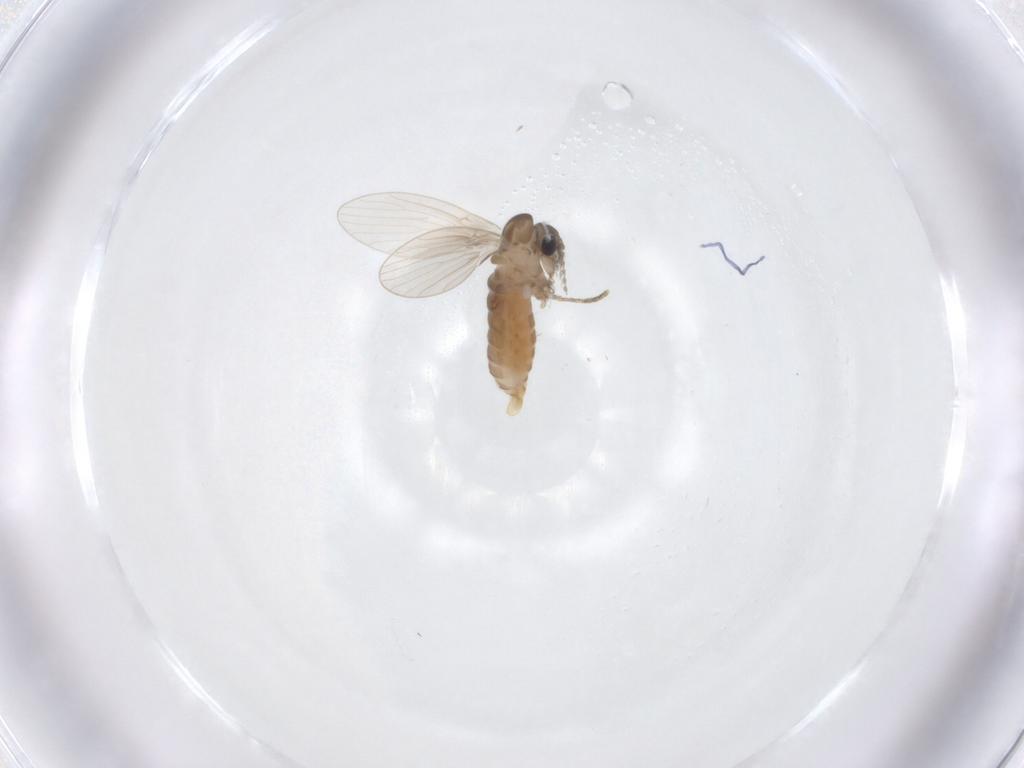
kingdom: Animalia
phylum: Arthropoda
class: Insecta
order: Diptera
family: Psychodidae
